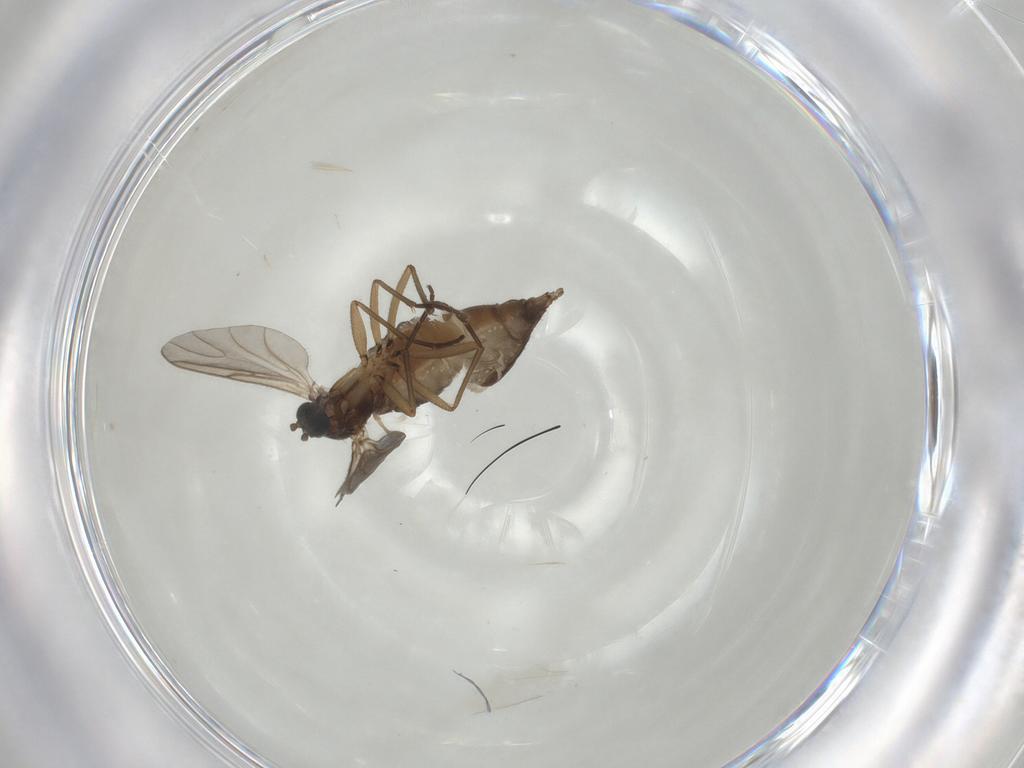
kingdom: Animalia
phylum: Arthropoda
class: Insecta
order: Diptera
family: Sciaridae
